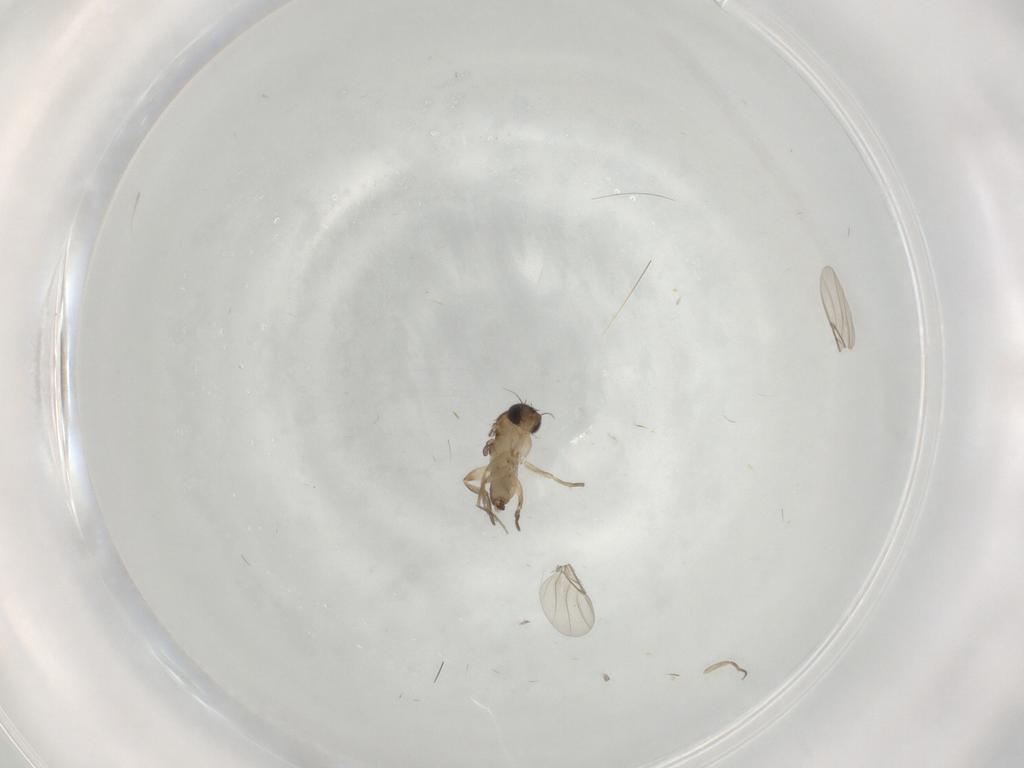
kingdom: Animalia
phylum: Arthropoda
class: Insecta
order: Diptera
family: Phoridae
